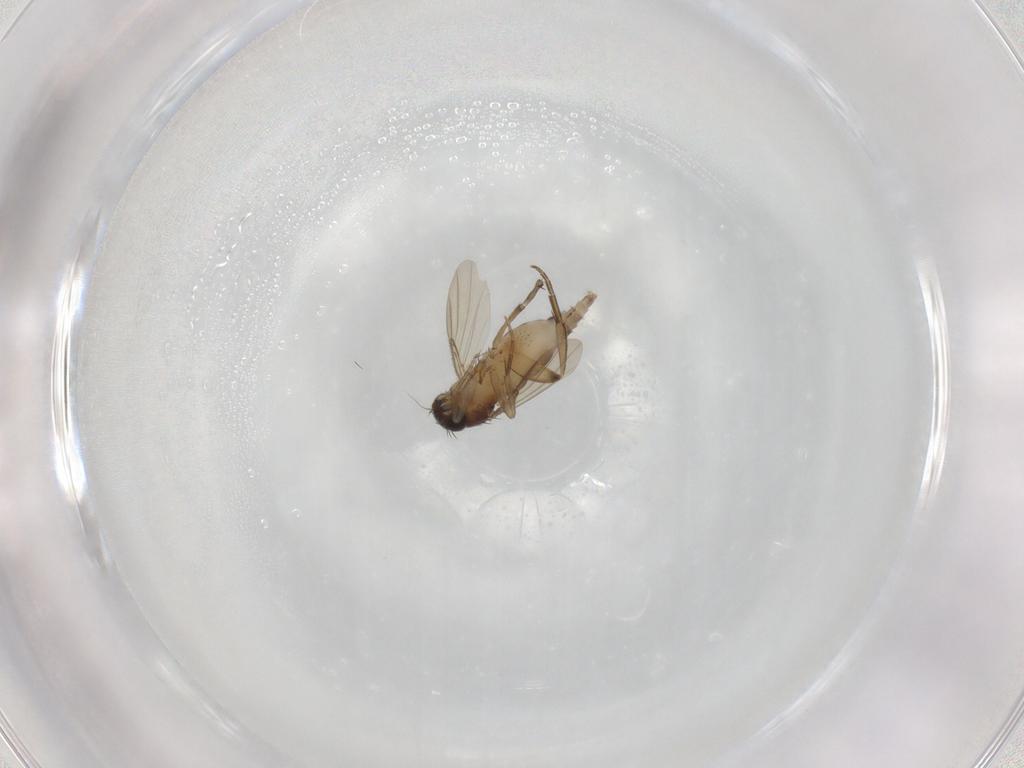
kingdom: Animalia
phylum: Arthropoda
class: Insecta
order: Diptera
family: Phoridae
